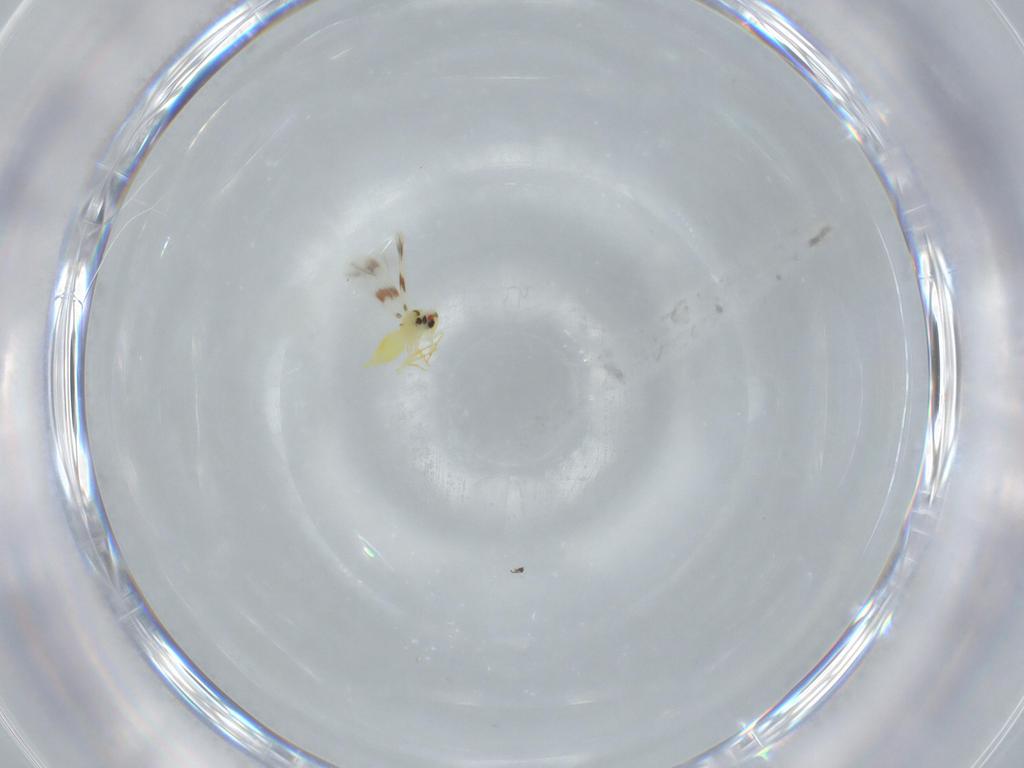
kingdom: Animalia
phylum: Arthropoda
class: Insecta
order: Hemiptera
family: Aleyrodidae
